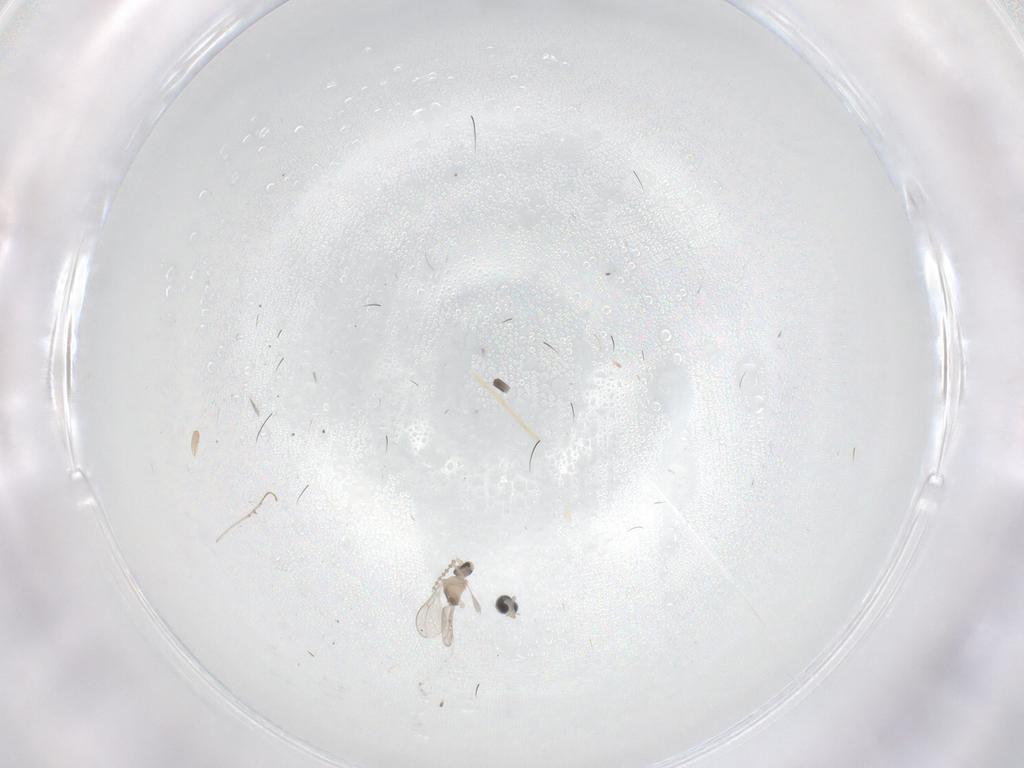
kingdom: Animalia
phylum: Arthropoda
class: Insecta
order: Diptera
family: Cecidomyiidae
